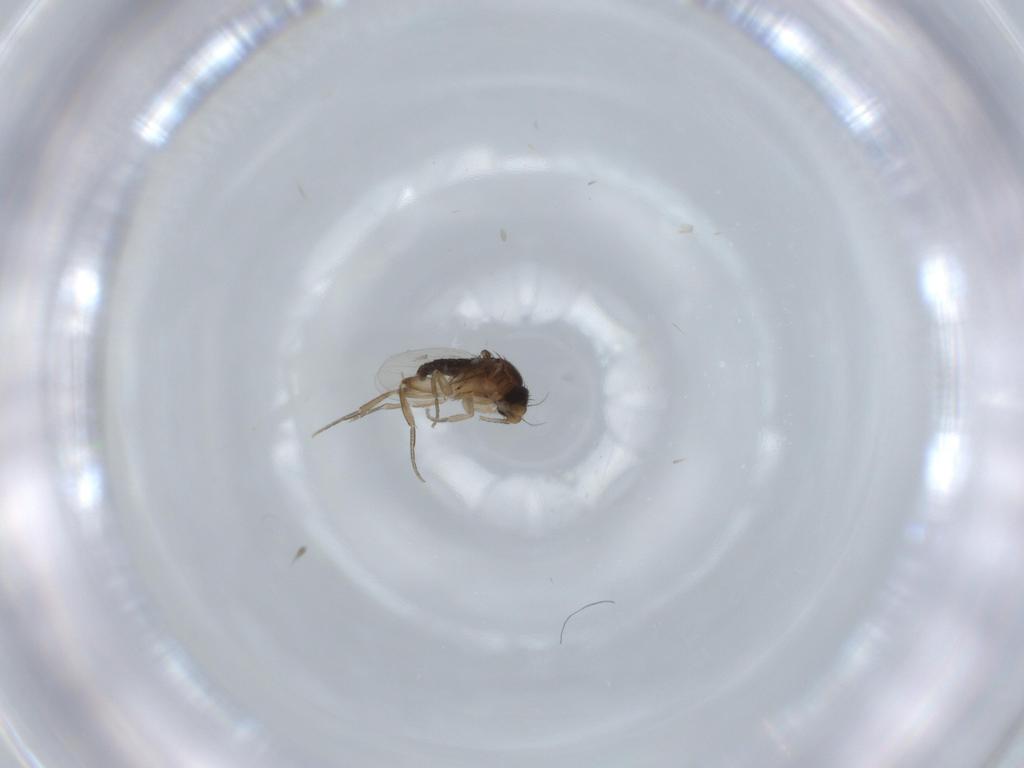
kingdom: Animalia
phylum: Arthropoda
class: Insecta
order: Diptera
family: Phoridae
